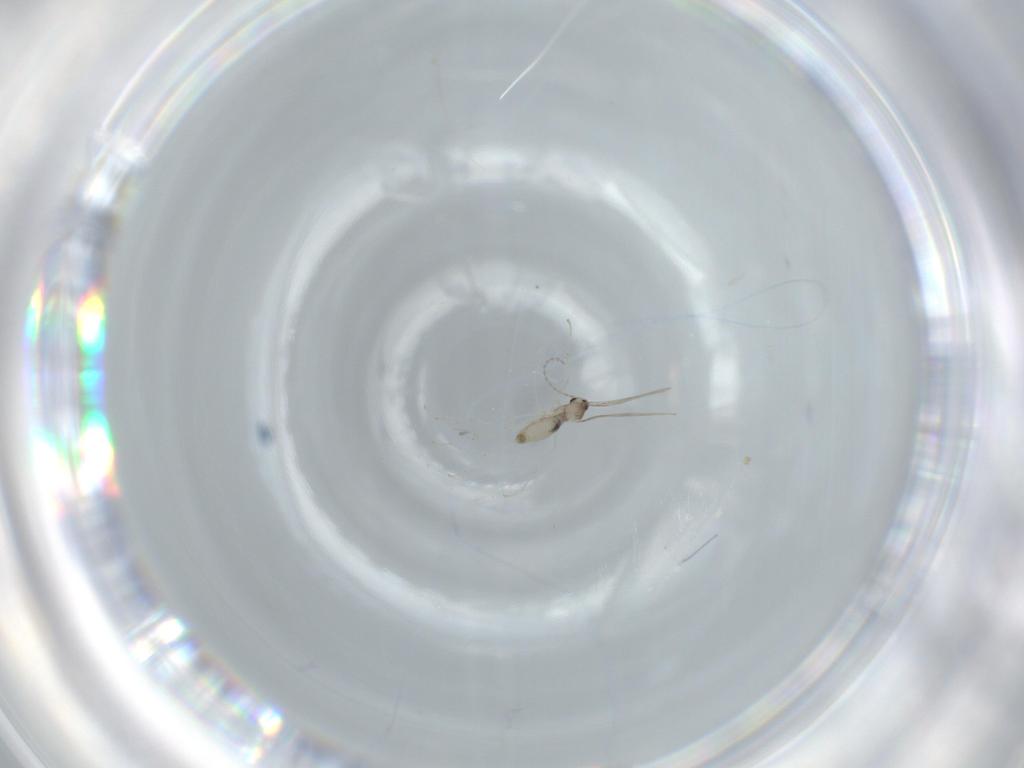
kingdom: Animalia
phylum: Arthropoda
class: Insecta
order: Diptera
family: Cecidomyiidae
